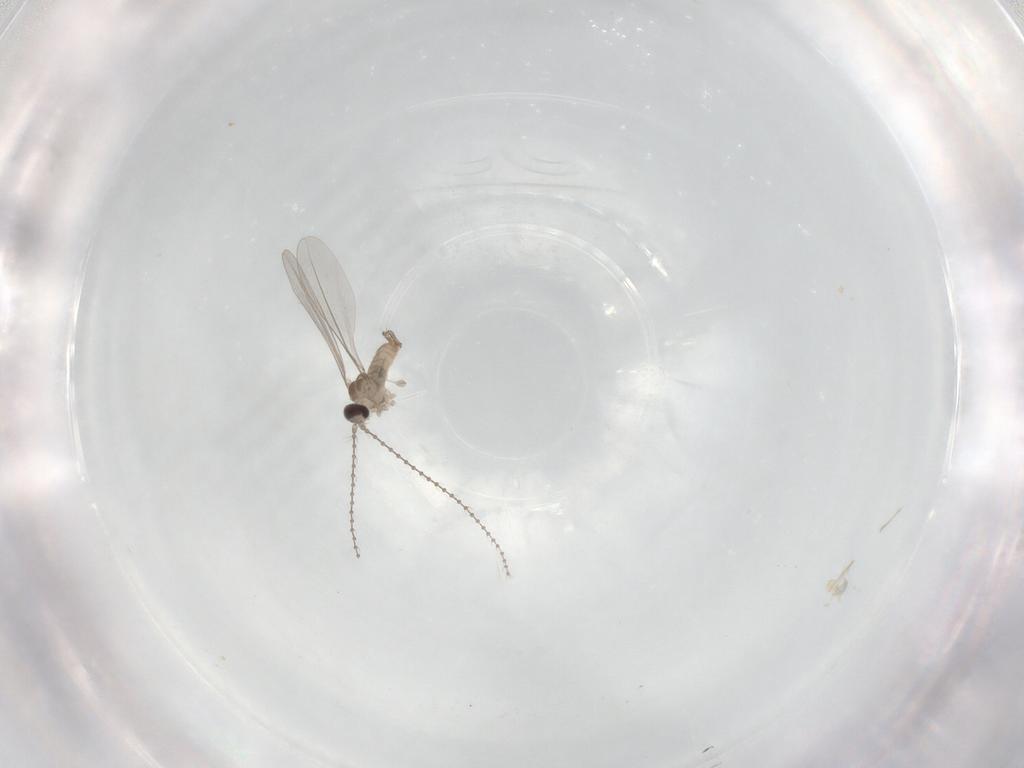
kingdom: Animalia
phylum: Arthropoda
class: Insecta
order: Diptera
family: Cecidomyiidae
